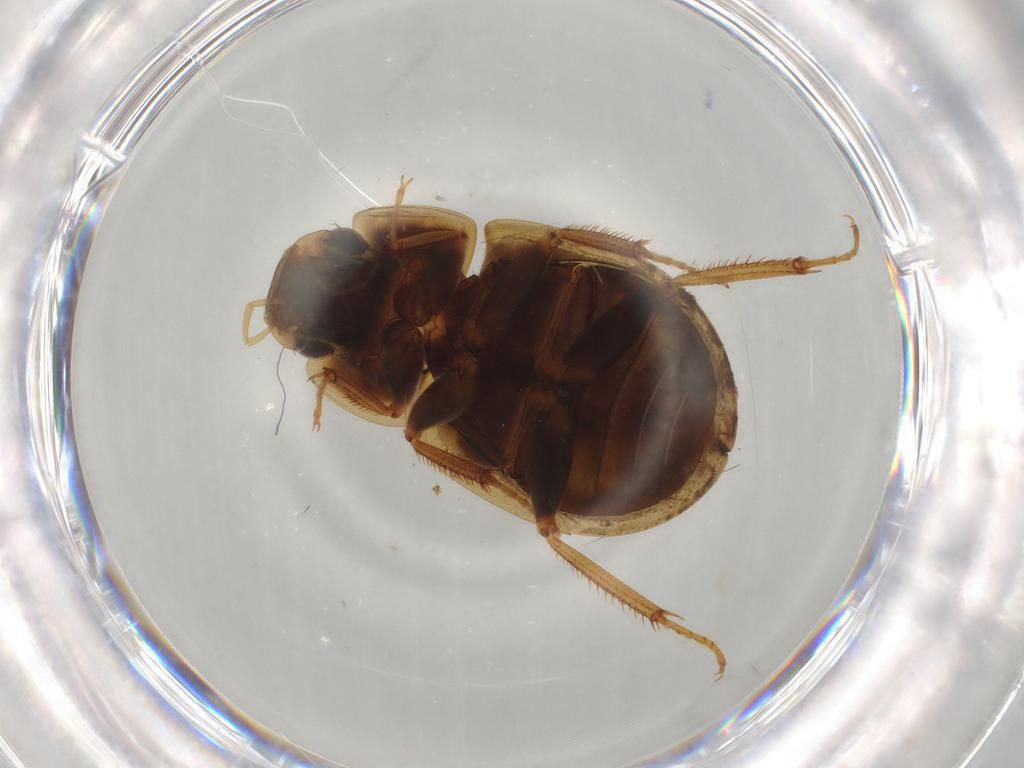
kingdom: Animalia
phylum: Arthropoda
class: Insecta
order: Coleoptera
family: Hydrophilidae
